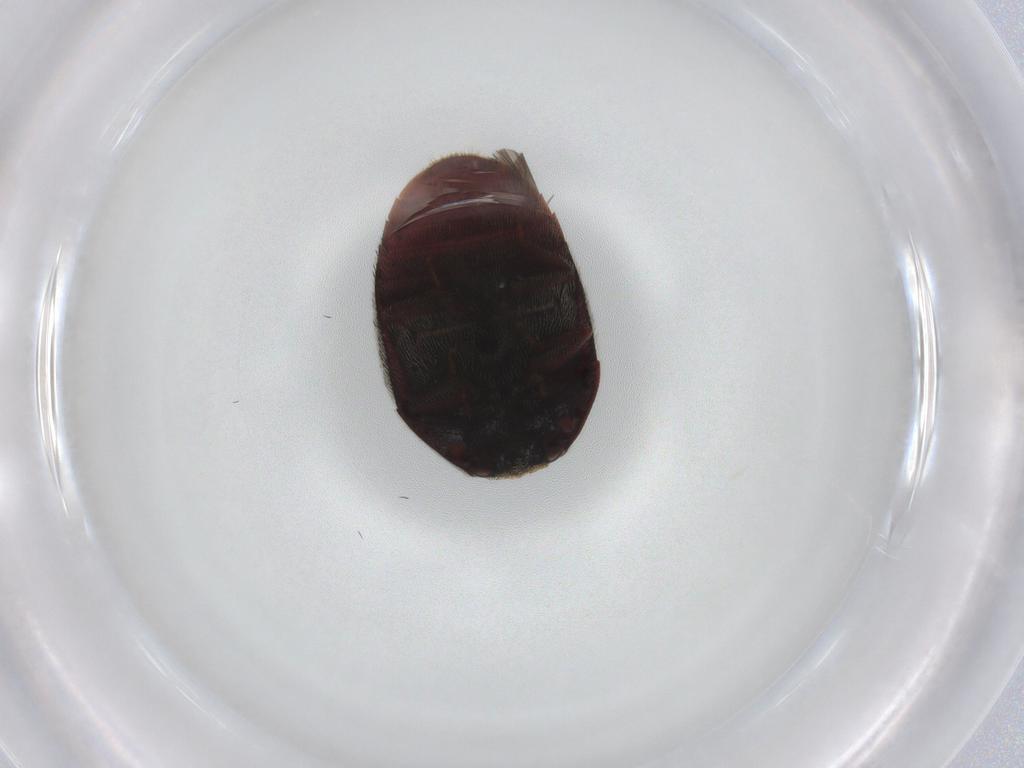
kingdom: Animalia
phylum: Arthropoda
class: Insecta
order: Coleoptera
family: Dermestidae
